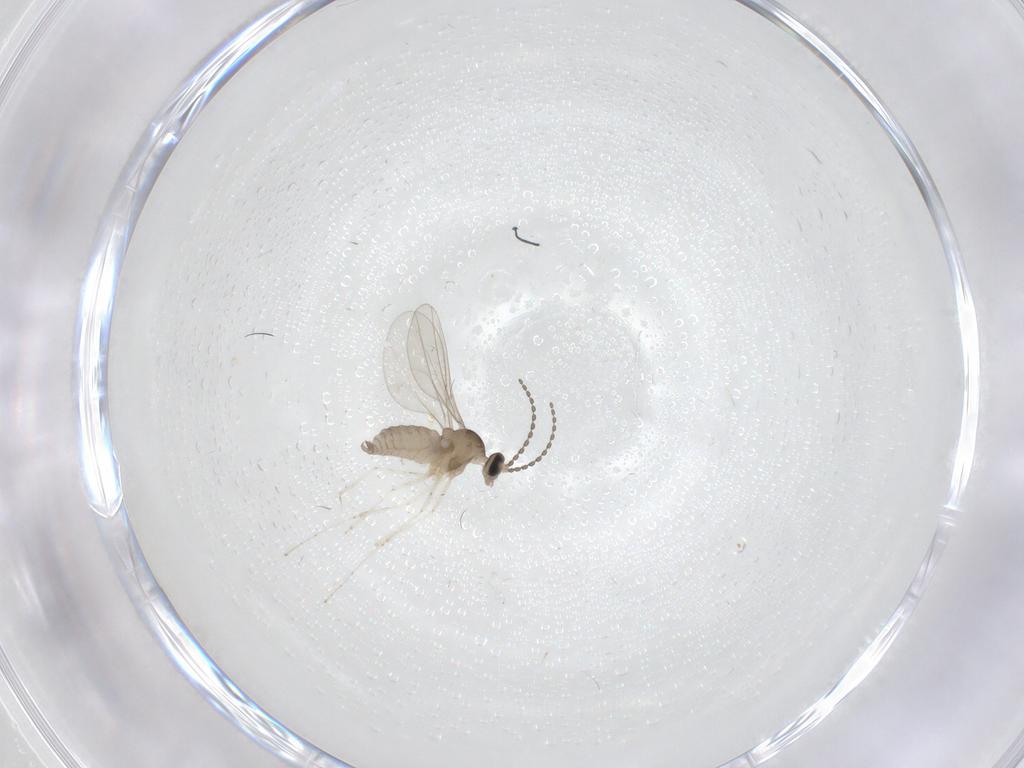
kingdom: Animalia
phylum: Arthropoda
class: Insecta
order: Diptera
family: Cecidomyiidae
